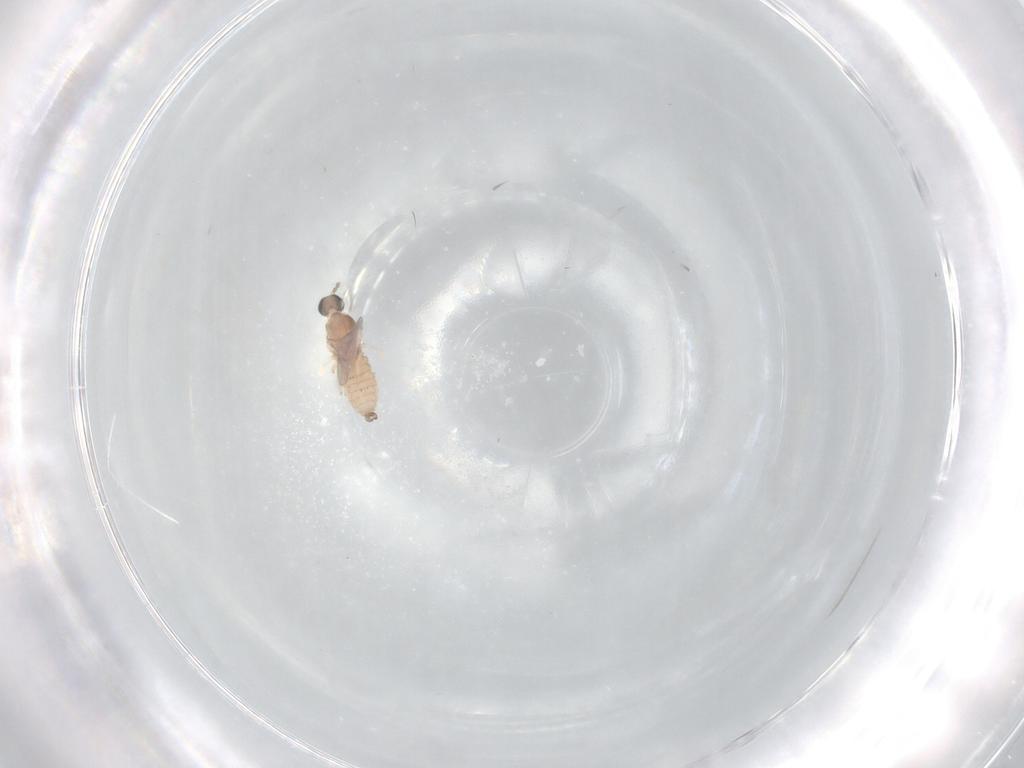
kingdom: Animalia
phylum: Arthropoda
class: Insecta
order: Diptera
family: Cecidomyiidae
